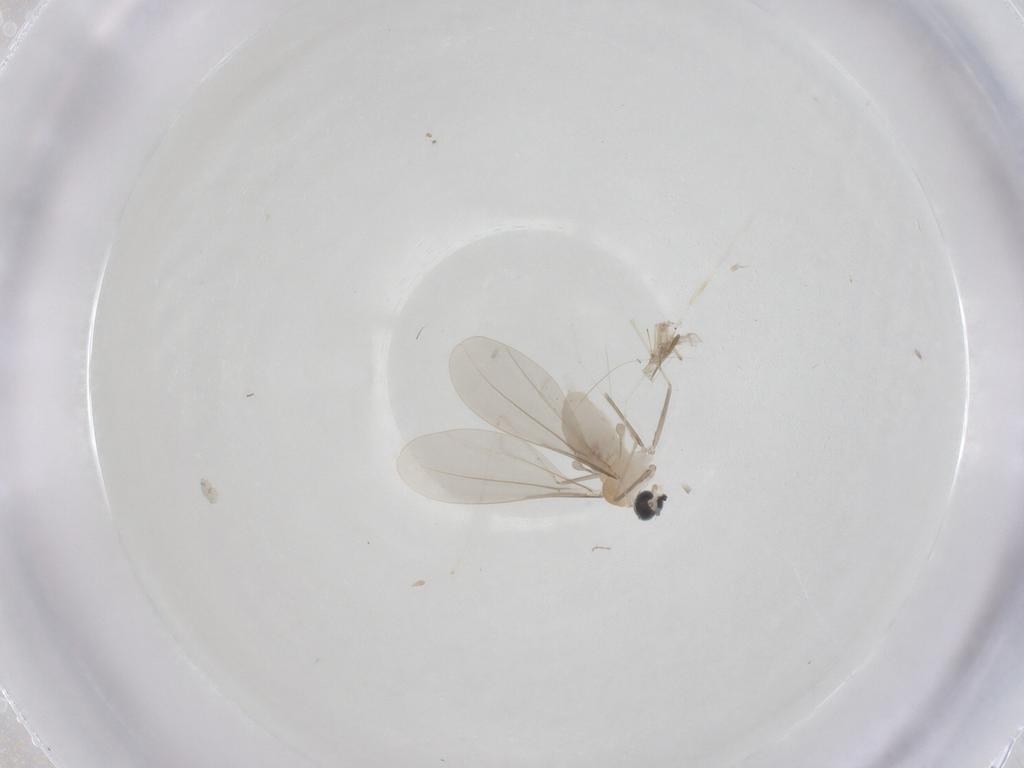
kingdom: Animalia
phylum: Arthropoda
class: Insecta
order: Diptera
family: Cecidomyiidae
